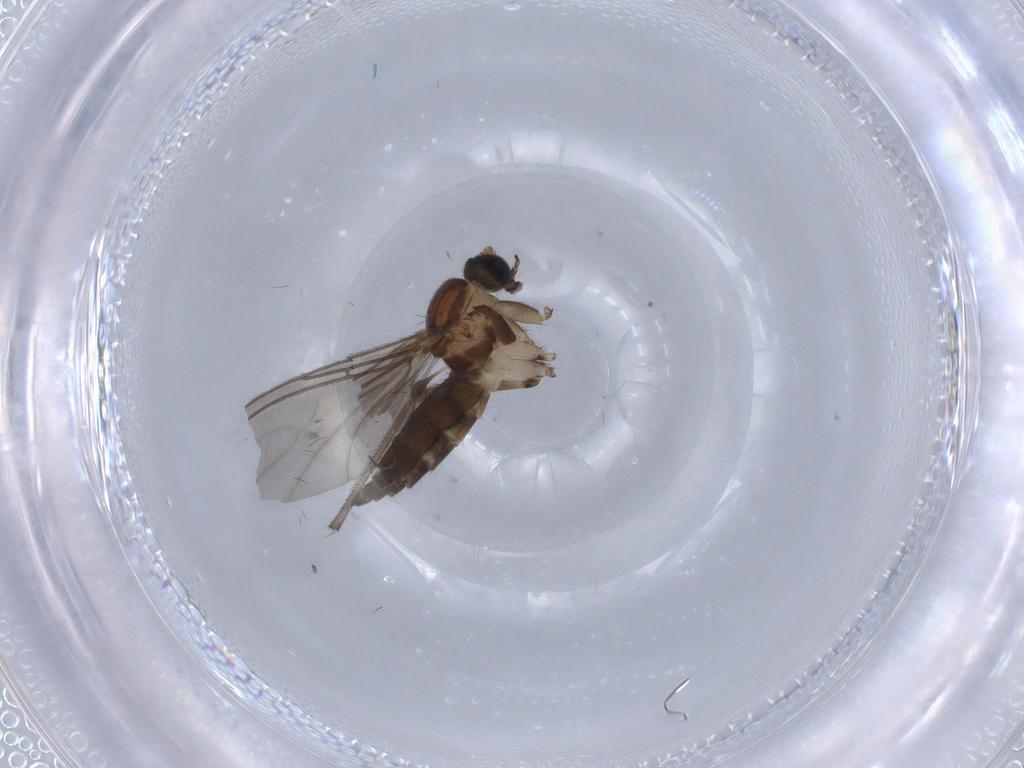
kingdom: Animalia
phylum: Arthropoda
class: Insecta
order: Diptera
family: Sciaridae
